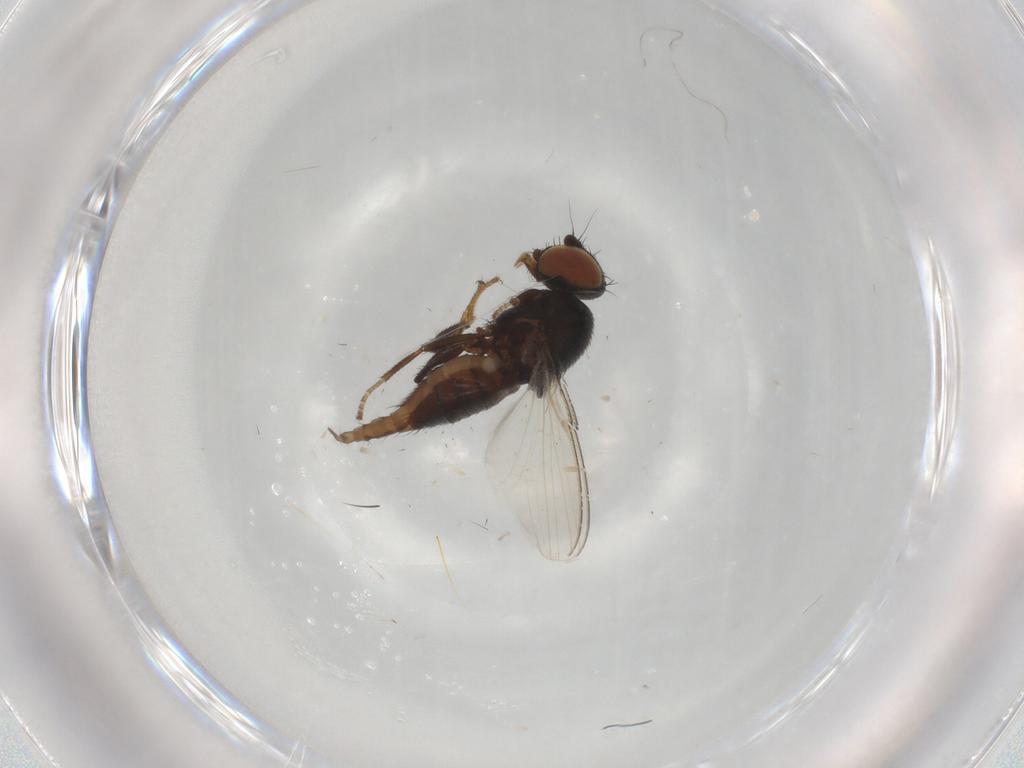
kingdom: Animalia
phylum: Arthropoda
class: Insecta
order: Diptera
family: Milichiidae
